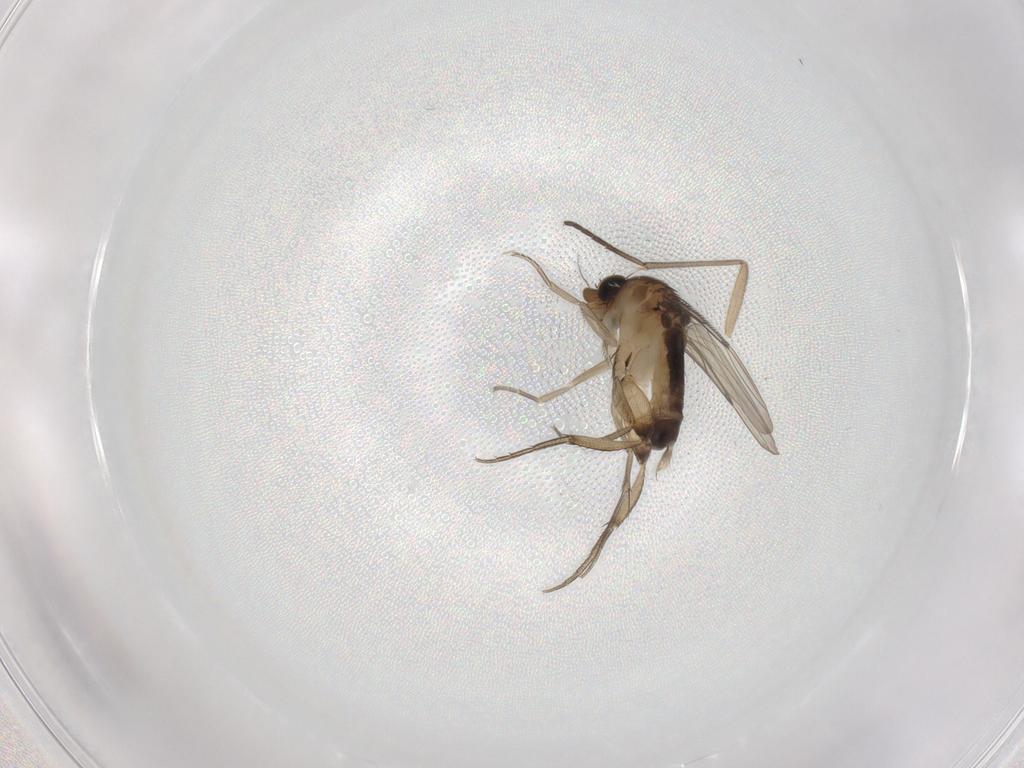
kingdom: Animalia
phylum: Arthropoda
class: Insecta
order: Diptera
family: Phoridae
